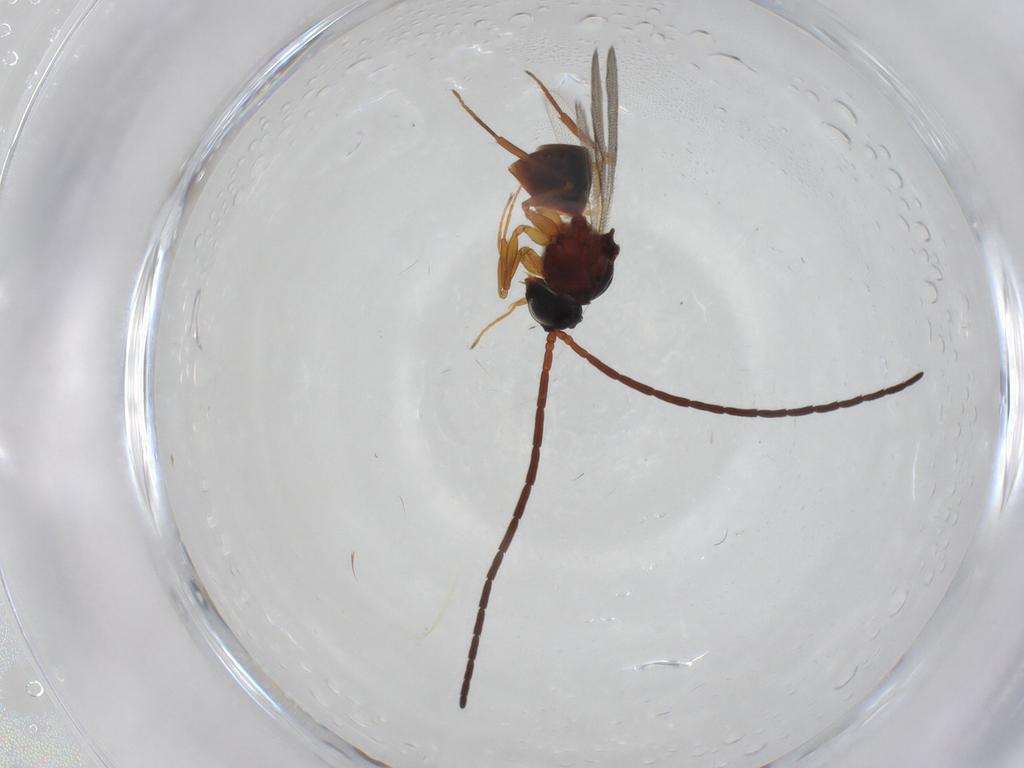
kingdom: Animalia
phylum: Arthropoda
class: Insecta
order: Hymenoptera
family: Figitidae
